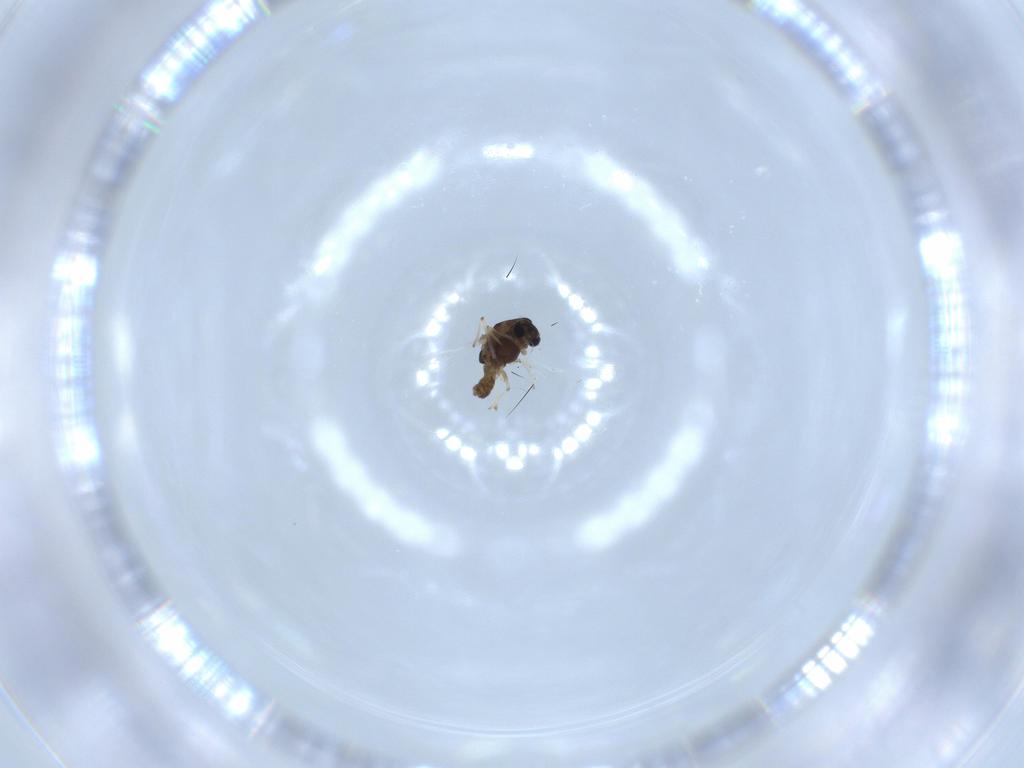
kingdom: Animalia
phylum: Arthropoda
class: Insecta
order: Diptera
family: Chironomidae
